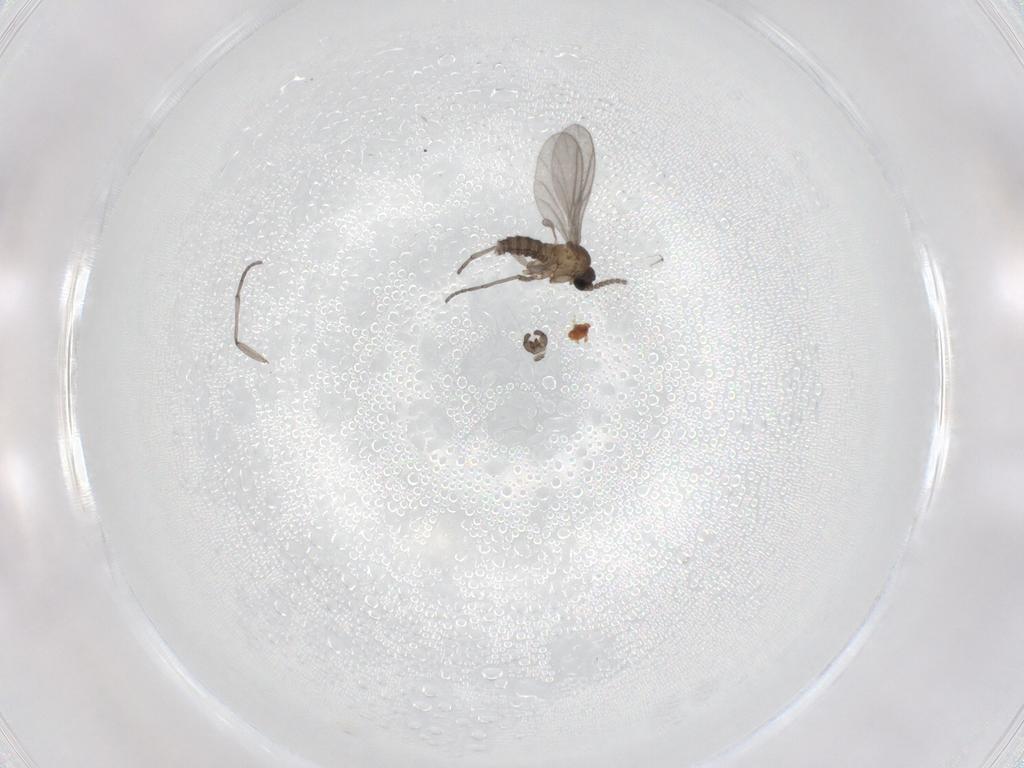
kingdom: Animalia
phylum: Arthropoda
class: Insecta
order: Diptera
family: Sciaridae
